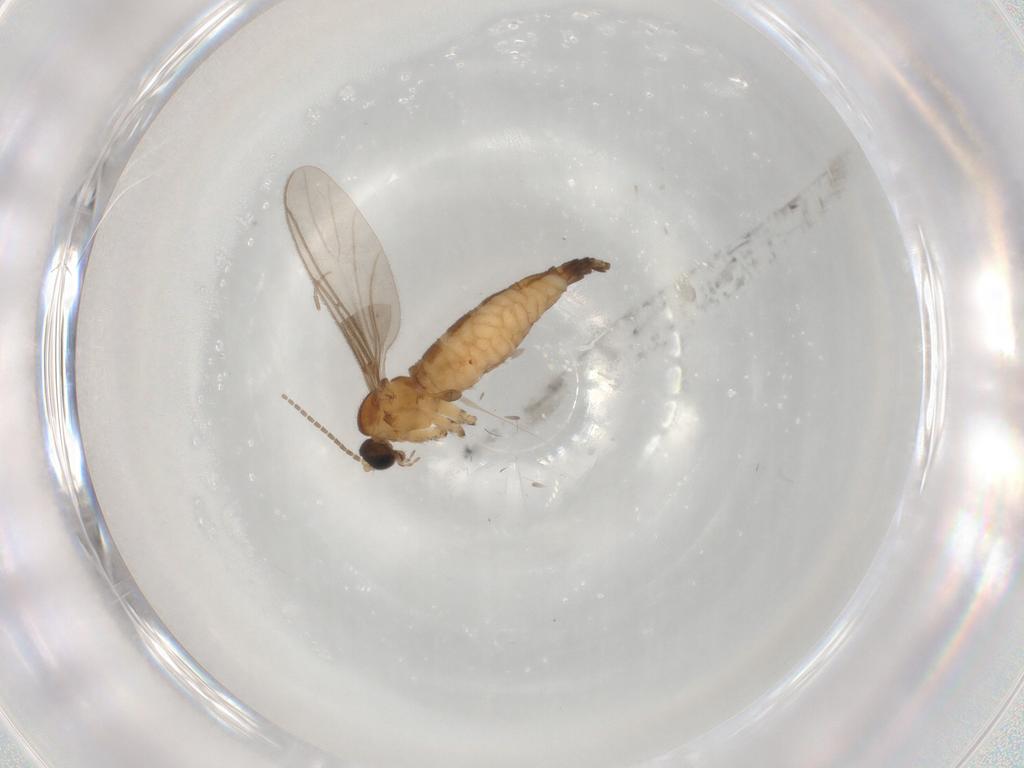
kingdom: Animalia
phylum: Arthropoda
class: Insecta
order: Diptera
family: Sciaridae
